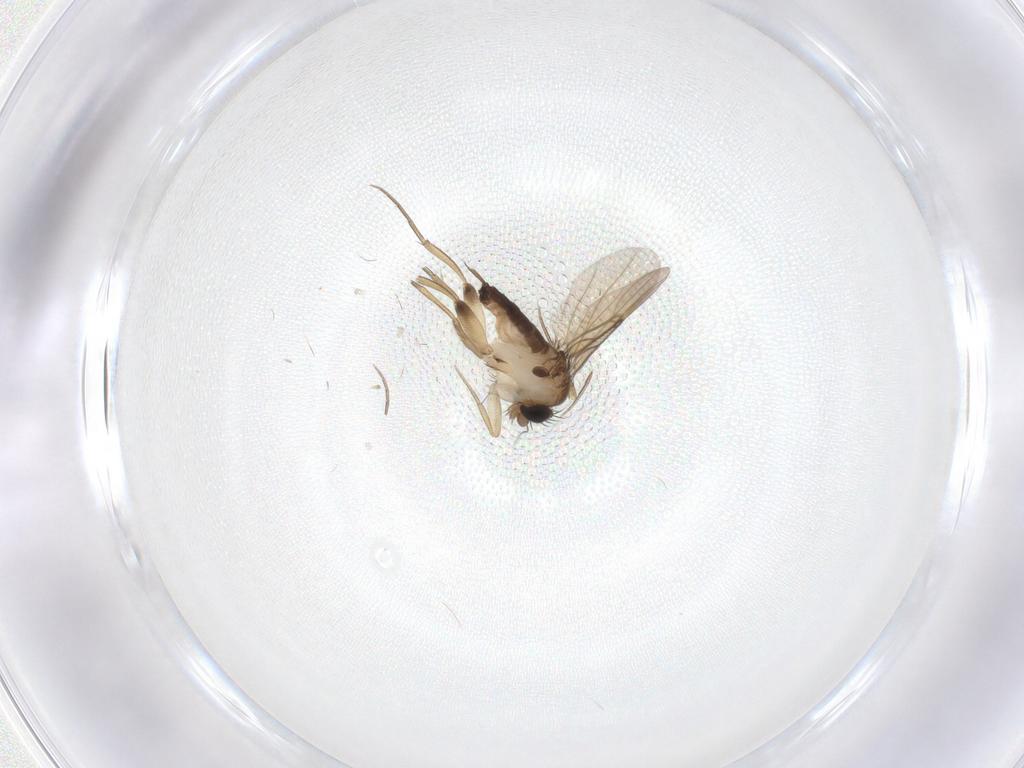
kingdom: Animalia
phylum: Arthropoda
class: Insecta
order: Diptera
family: Phoridae
